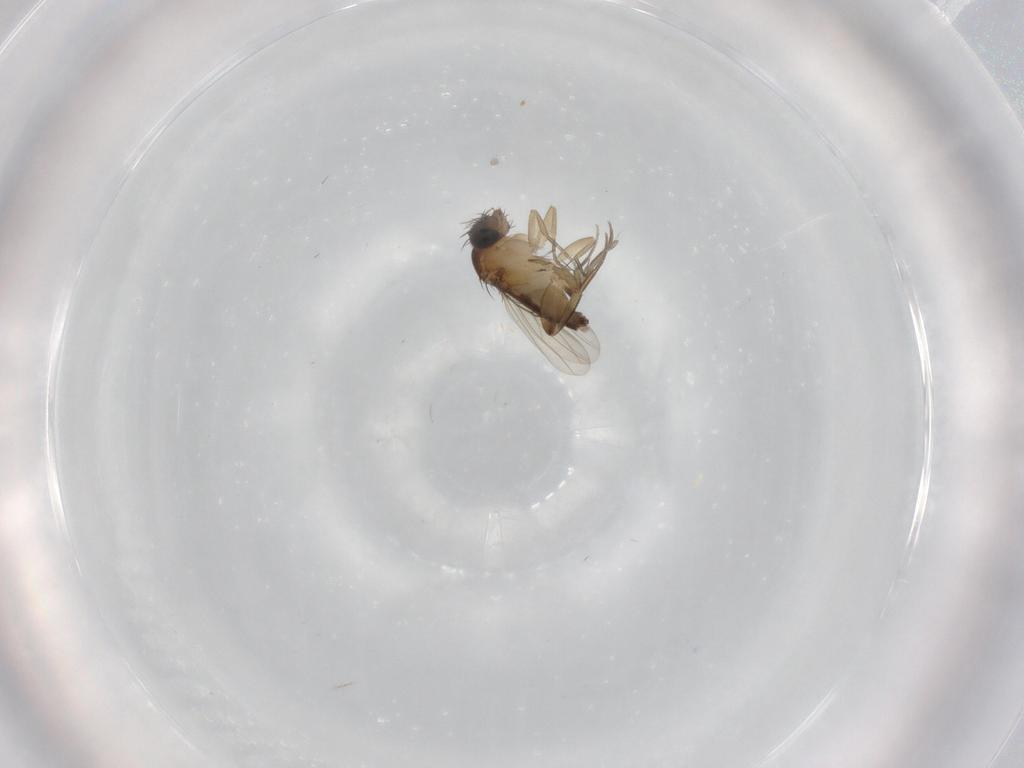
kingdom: Animalia
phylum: Arthropoda
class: Insecta
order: Diptera
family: Phoridae
